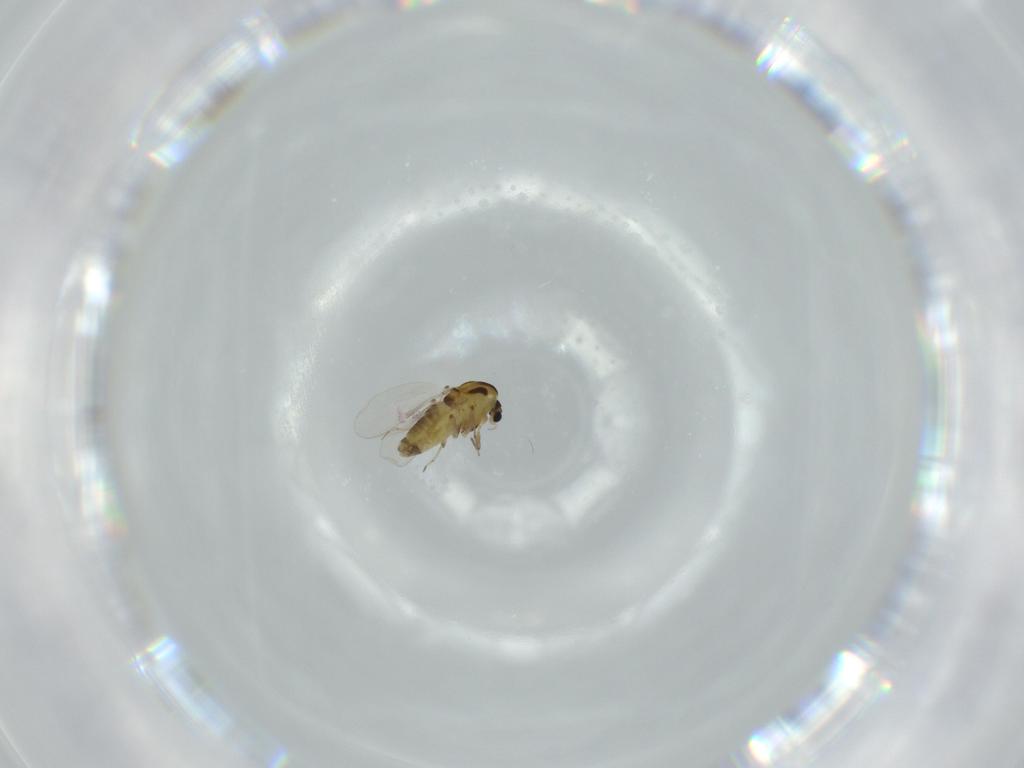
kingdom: Animalia
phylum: Arthropoda
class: Insecta
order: Diptera
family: Chironomidae
